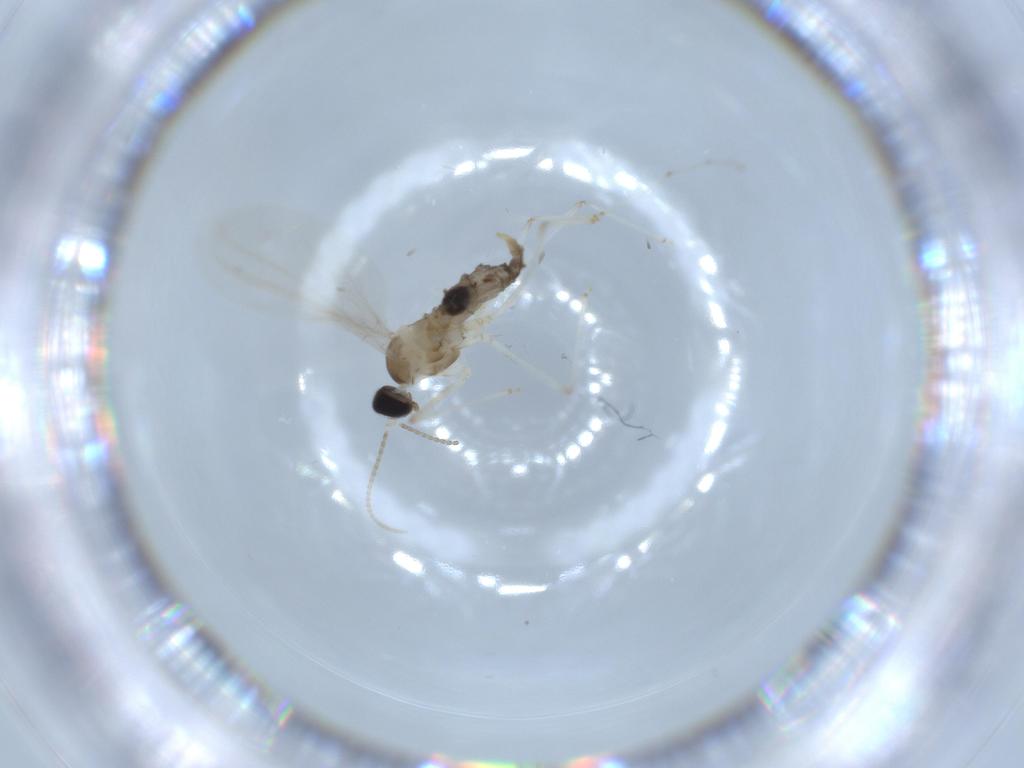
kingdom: Animalia
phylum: Arthropoda
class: Insecta
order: Diptera
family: Cecidomyiidae
